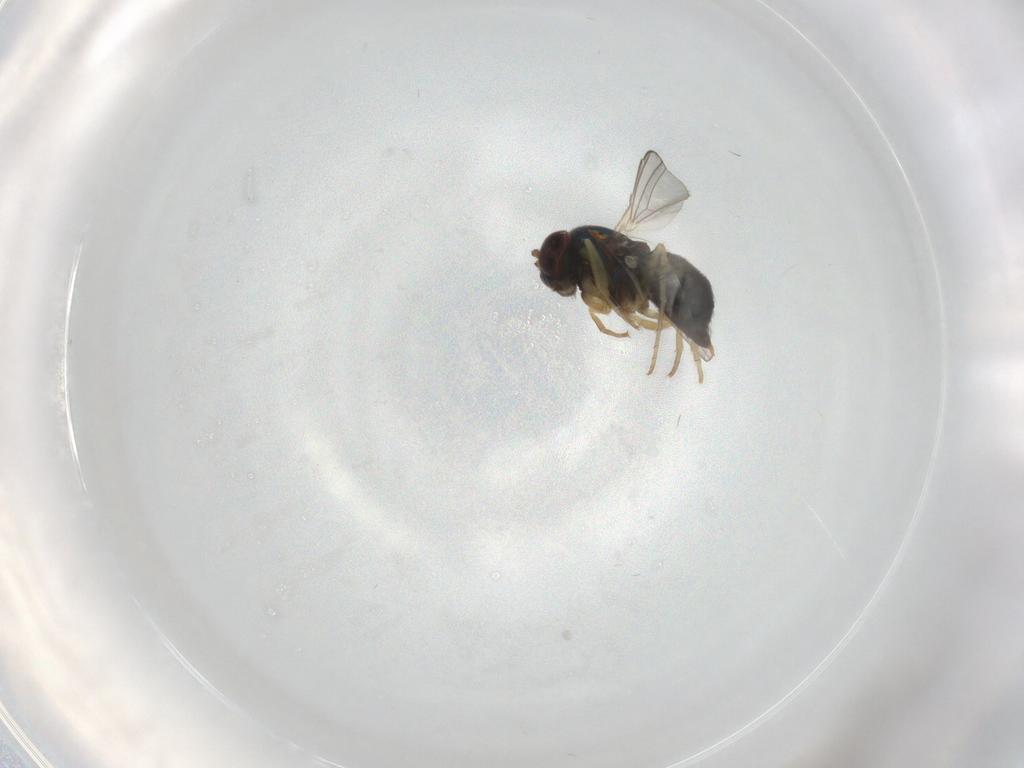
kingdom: Animalia
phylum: Arthropoda
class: Insecta
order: Diptera
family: Dolichopodidae
